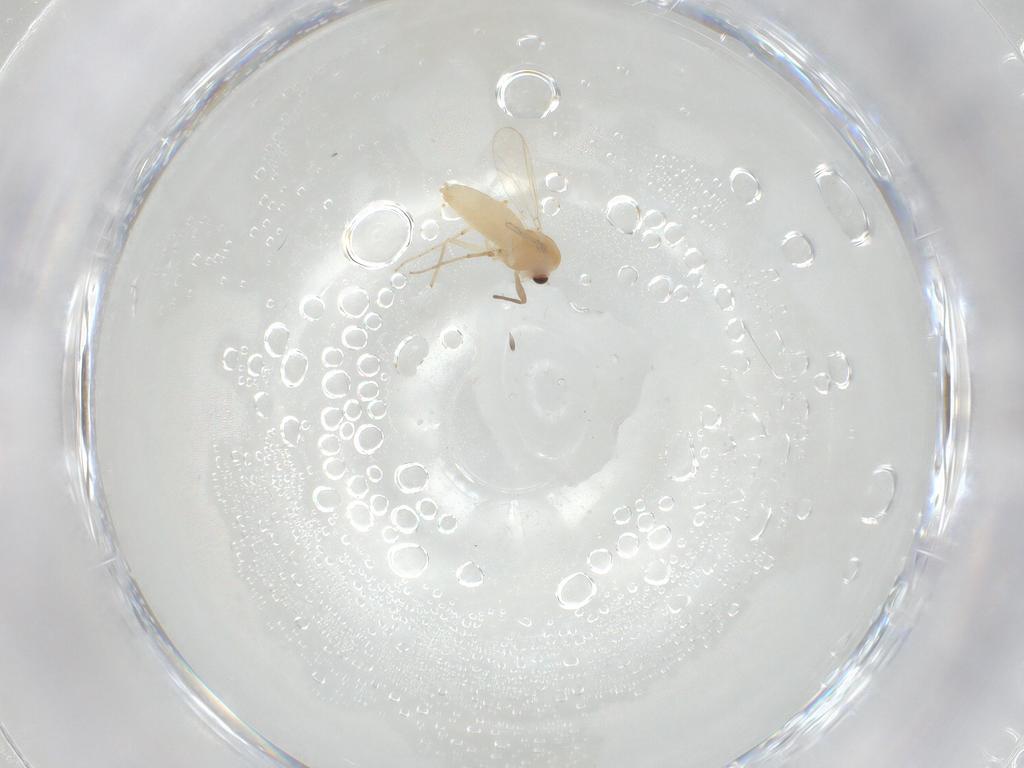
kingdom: Animalia
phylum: Arthropoda
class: Insecta
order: Diptera
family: Chironomidae
